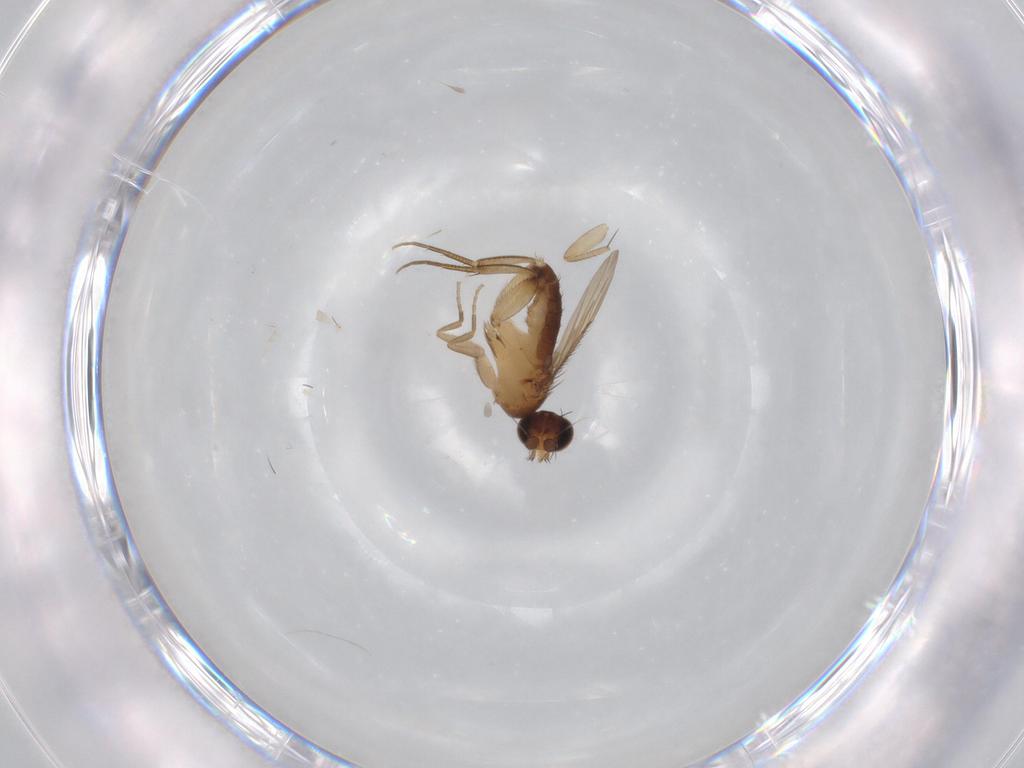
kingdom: Animalia
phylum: Arthropoda
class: Insecta
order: Diptera
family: Phoridae
